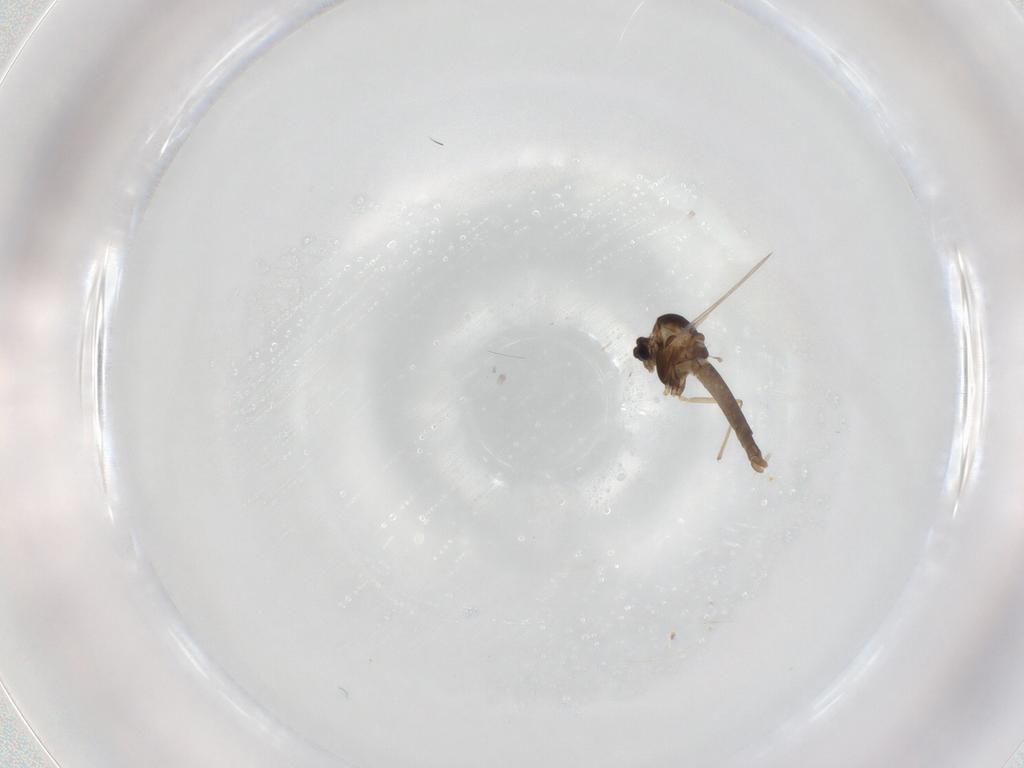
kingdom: Animalia
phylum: Arthropoda
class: Insecta
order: Diptera
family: Chironomidae
